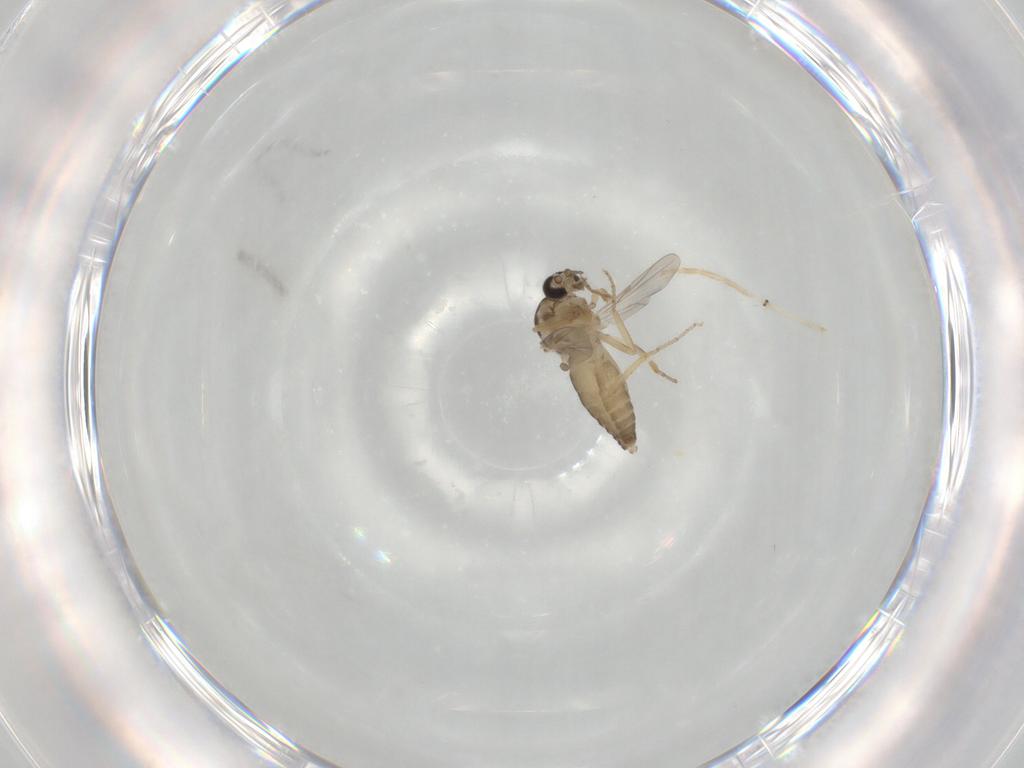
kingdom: Animalia
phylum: Arthropoda
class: Insecta
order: Diptera
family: Ceratopogonidae
